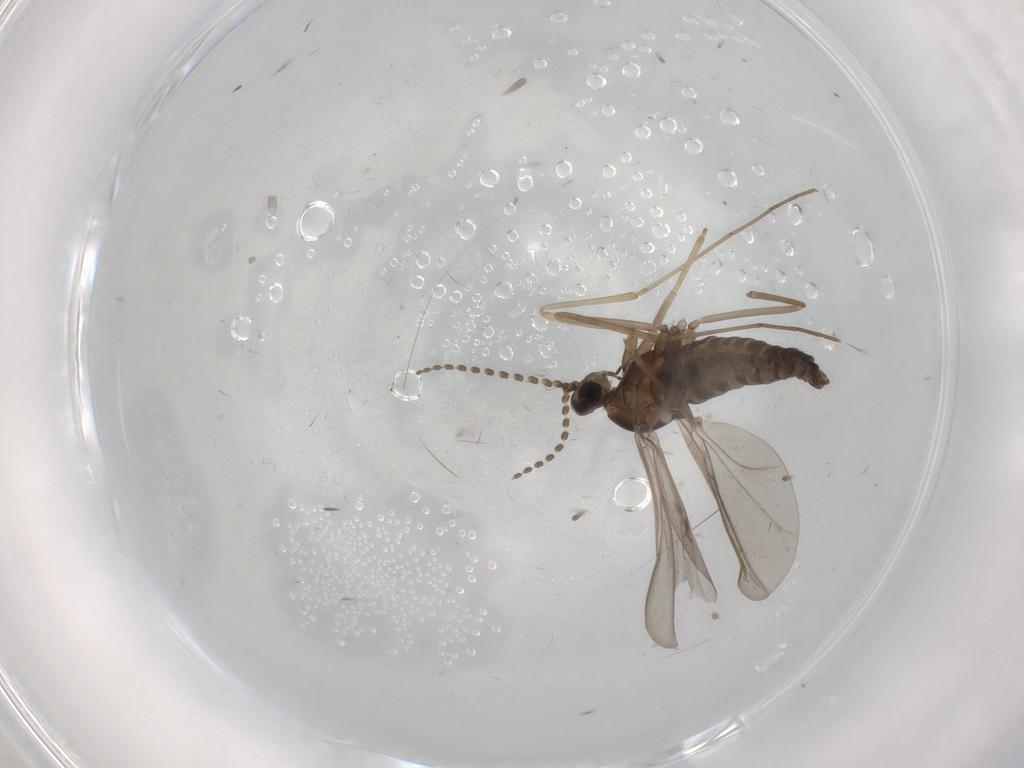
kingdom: Animalia
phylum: Arthropoda
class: Insecta
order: Diptera
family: Cecidomyiidae
